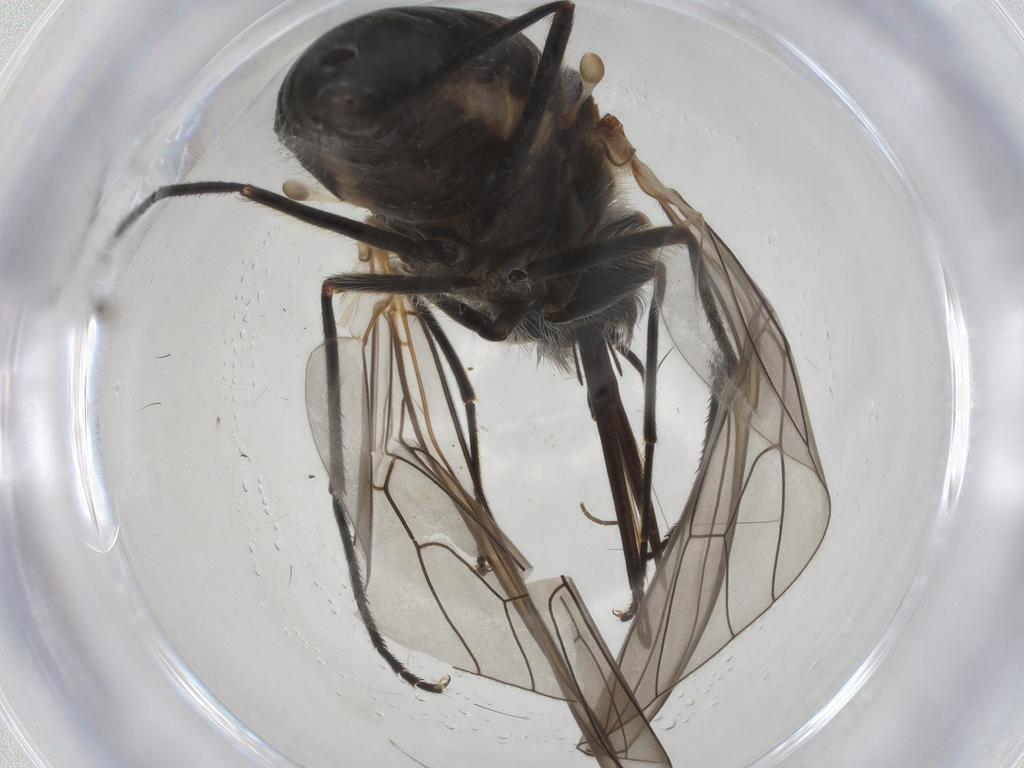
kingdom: Animalia
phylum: Arthropoda
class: Insecta
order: Diptera
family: Bombyliidae
